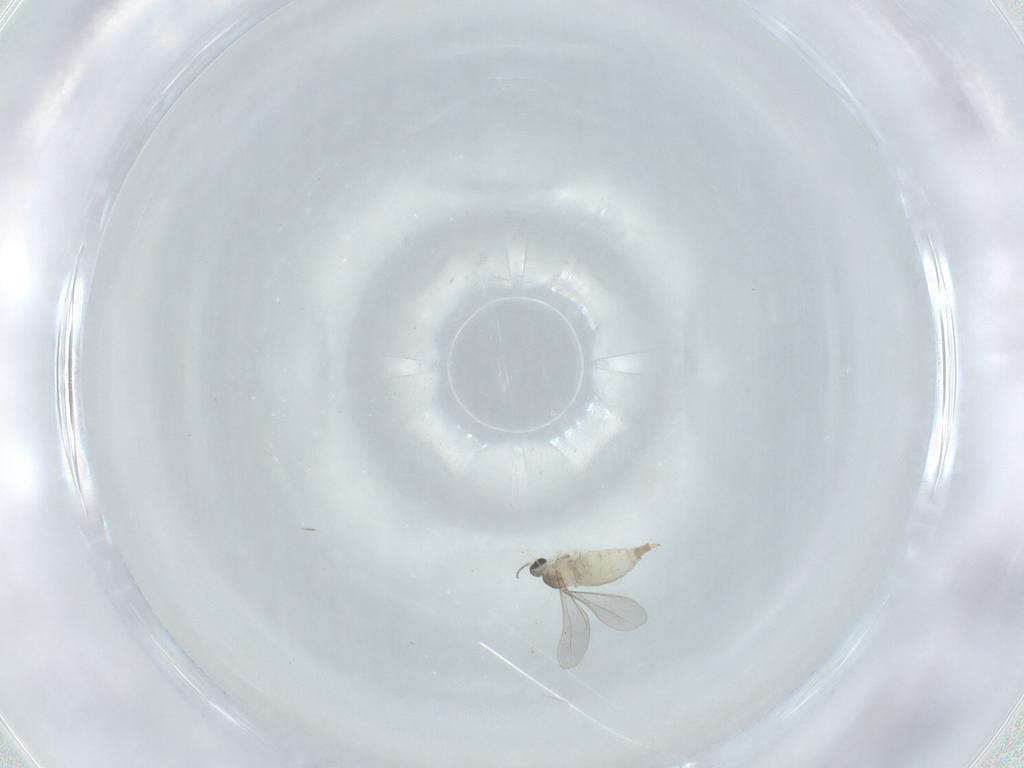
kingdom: Animalia
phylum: Arthropoda
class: Insecta
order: Diptera
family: Cecidomyiidae
